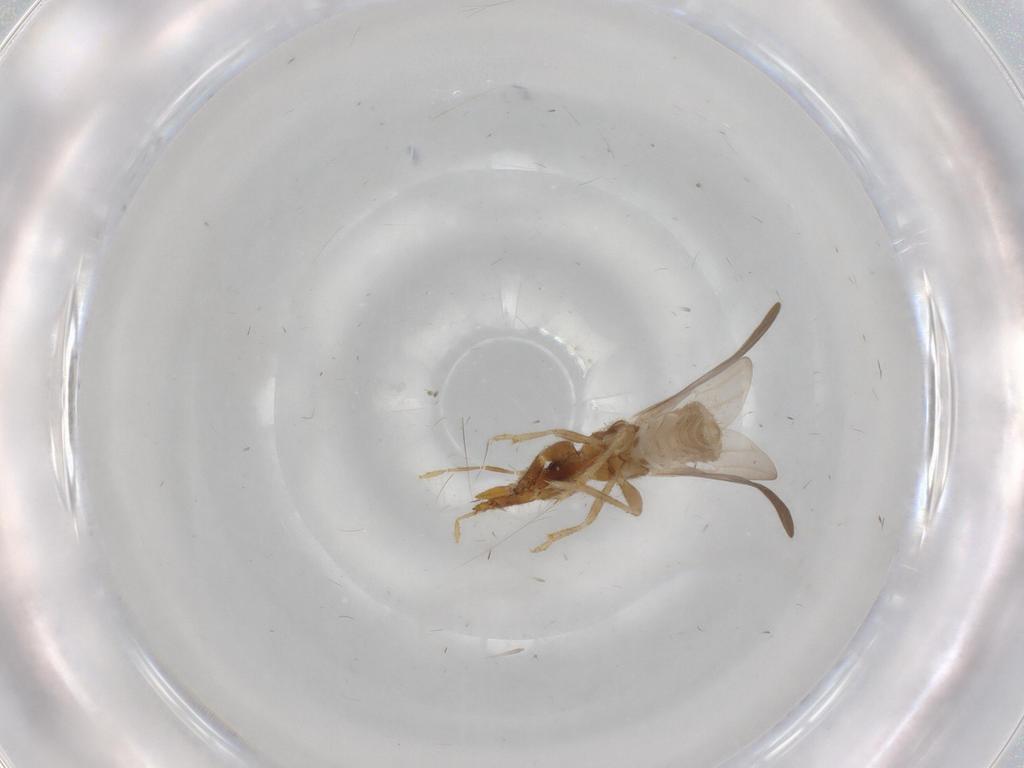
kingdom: Animalia
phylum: Arthropoda
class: Insecta
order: Hemiptera
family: Enicocephalidae
